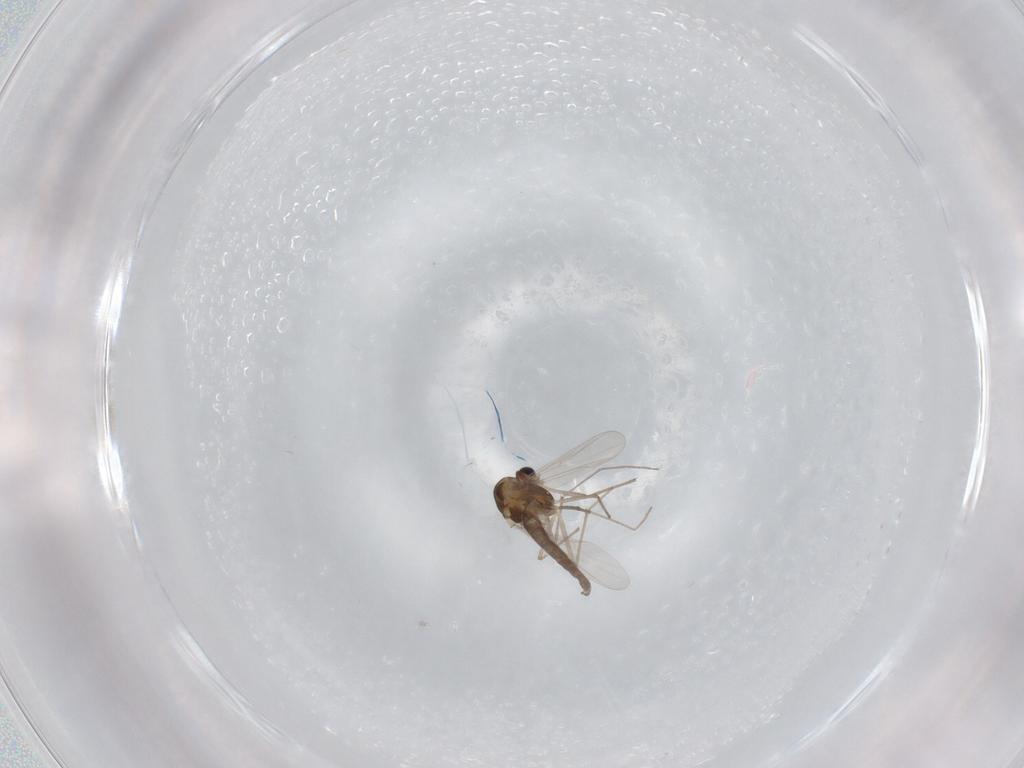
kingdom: Animalia
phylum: Arthropoda
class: Insecta
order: Diptera
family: Chironomidae
